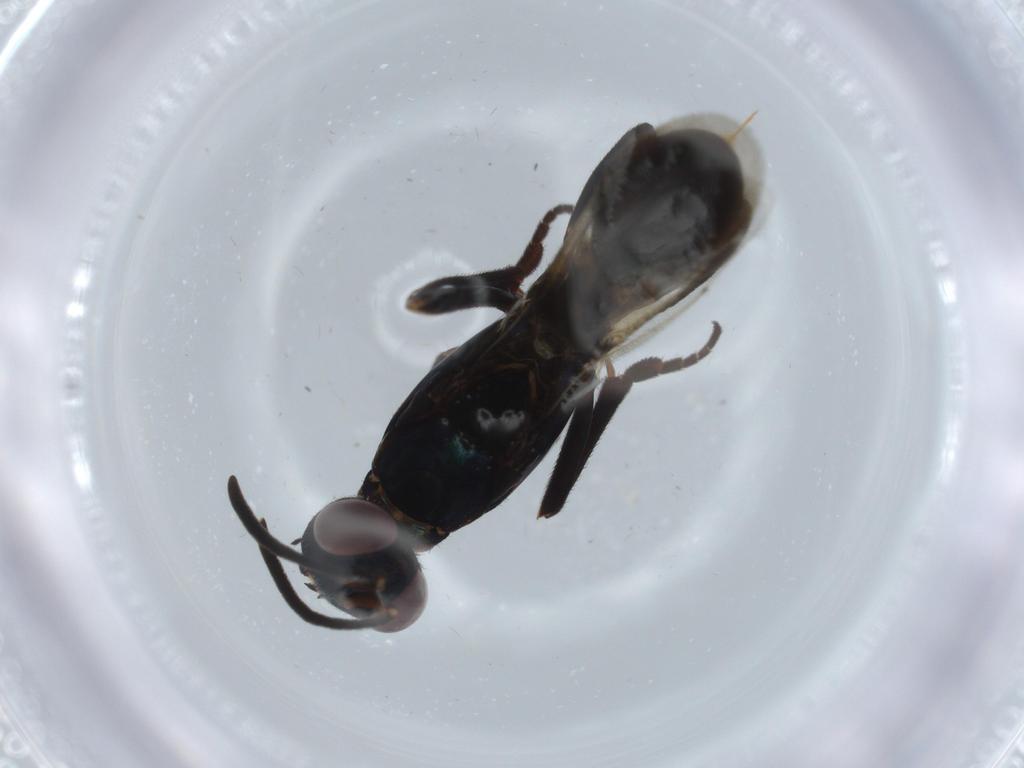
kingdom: Animalia
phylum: Arthropoda
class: Insecta
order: Hymenoptera
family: Eupelmidae
